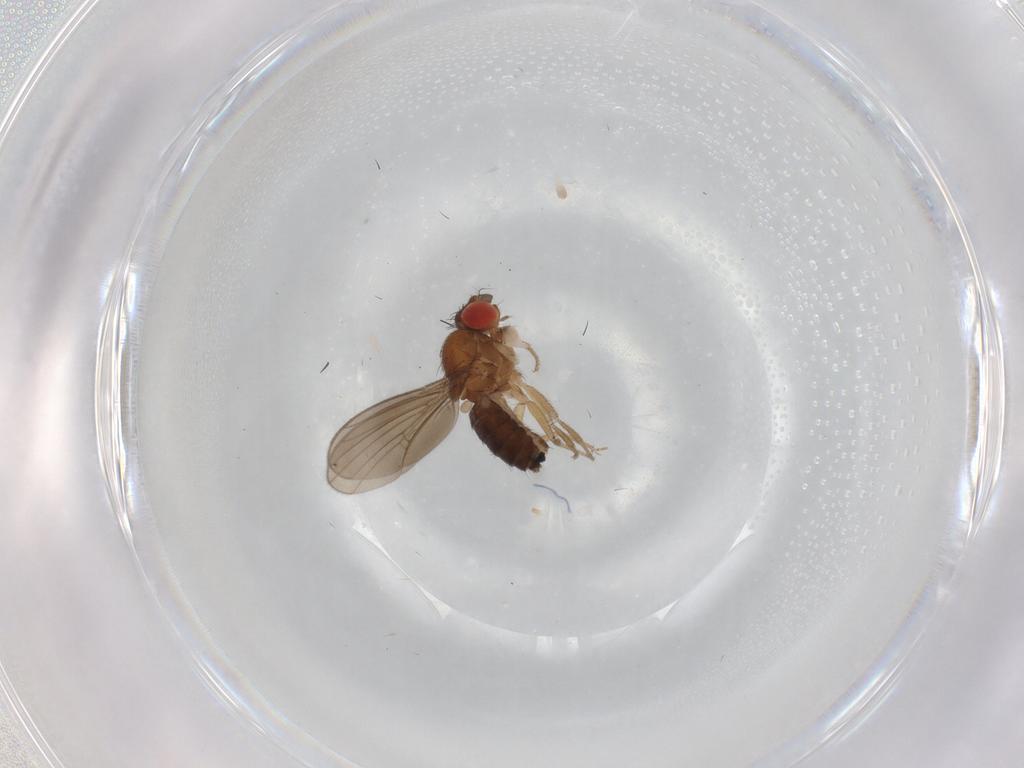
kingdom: Animalia
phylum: Arthropoda
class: Insecta
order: Diptera
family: Drosophilidae
